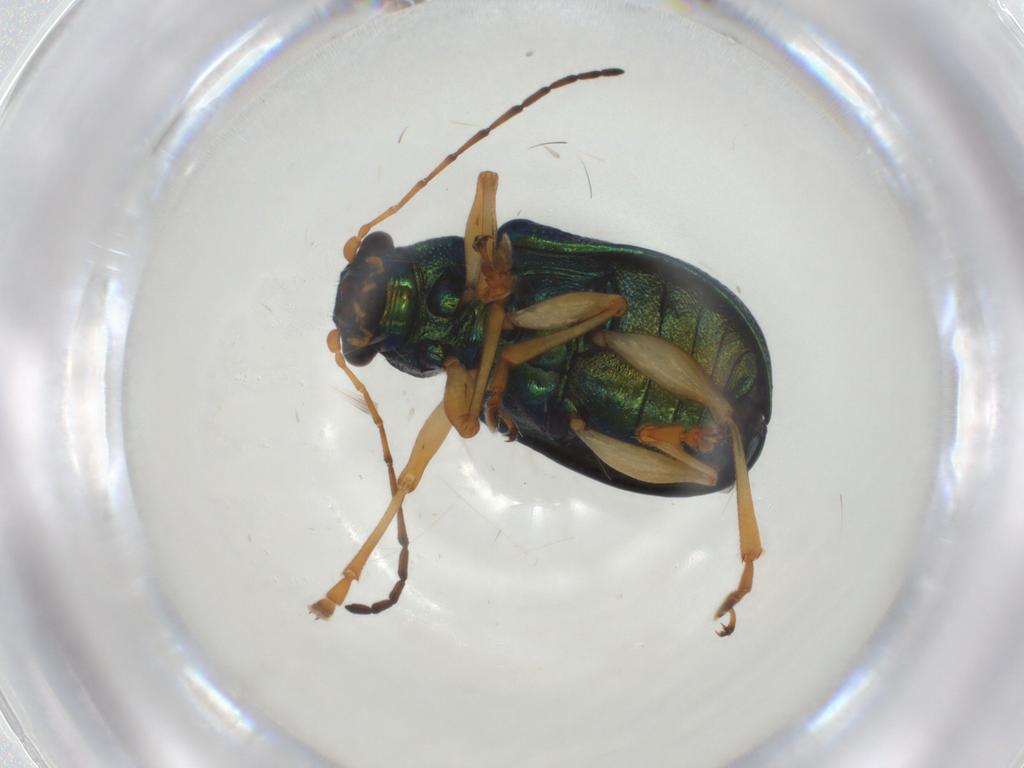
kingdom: Animalia
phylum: Arthropoda
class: Insecta
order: Coleoptera
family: Chrysomelidae
